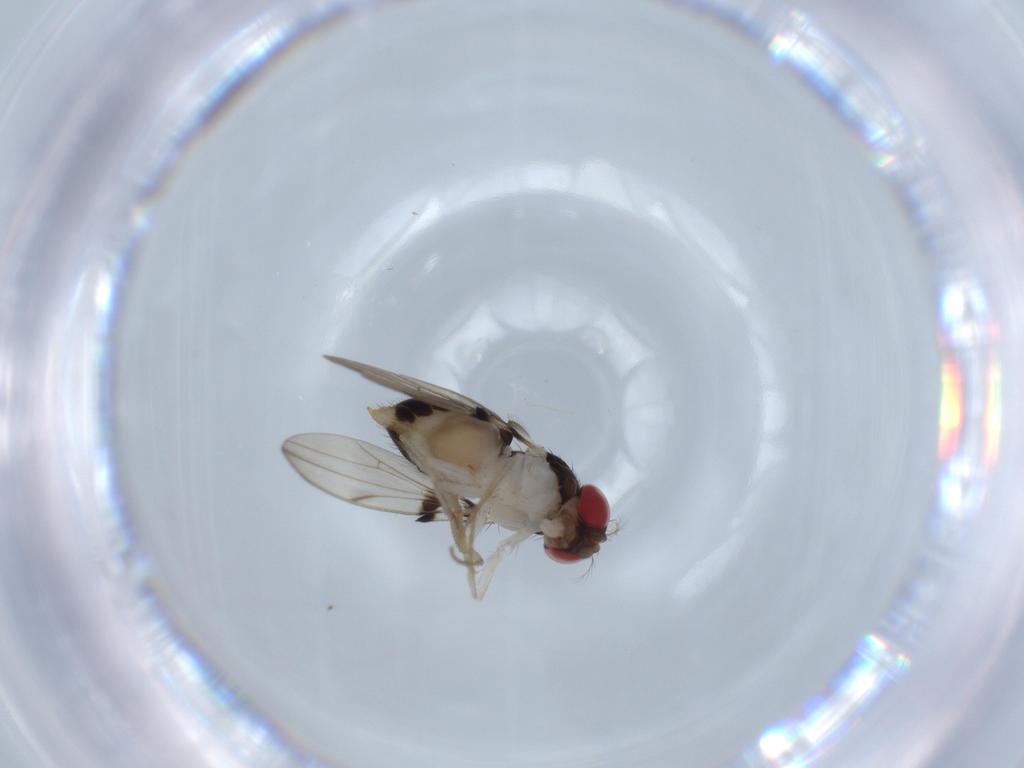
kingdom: Animalia
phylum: Arthropoda
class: Insecta
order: Diptera
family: Drosophilidae
